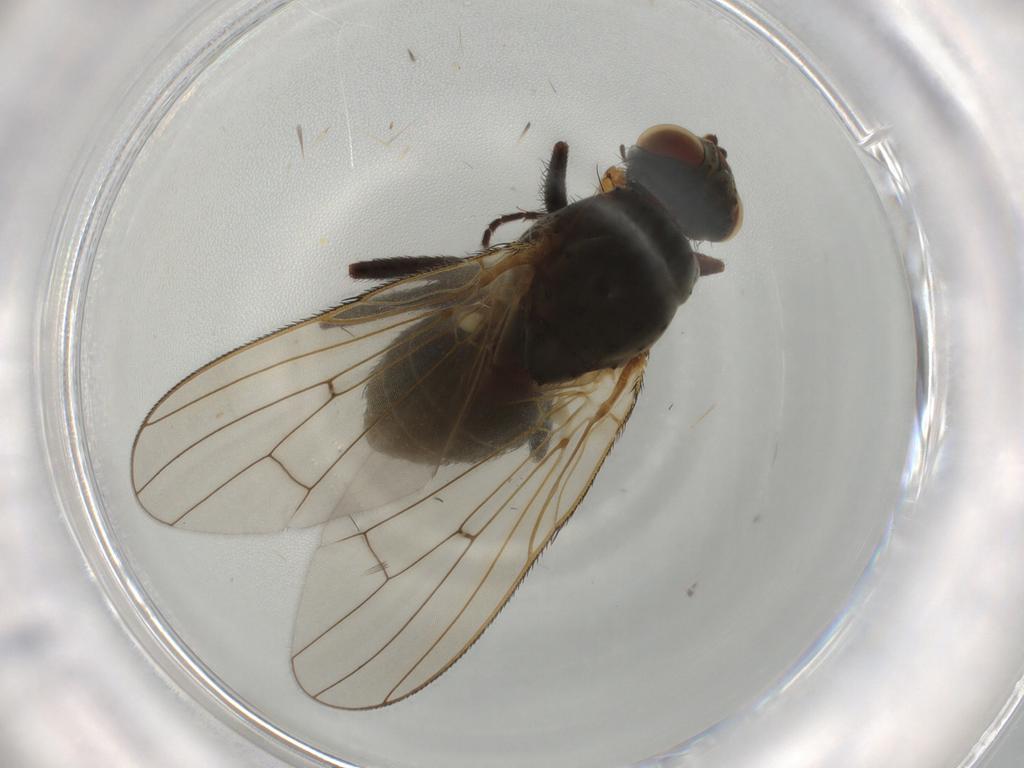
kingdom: Animalia
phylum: Arthropoda
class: Insecta
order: Diptera
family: Anthomyiidae
